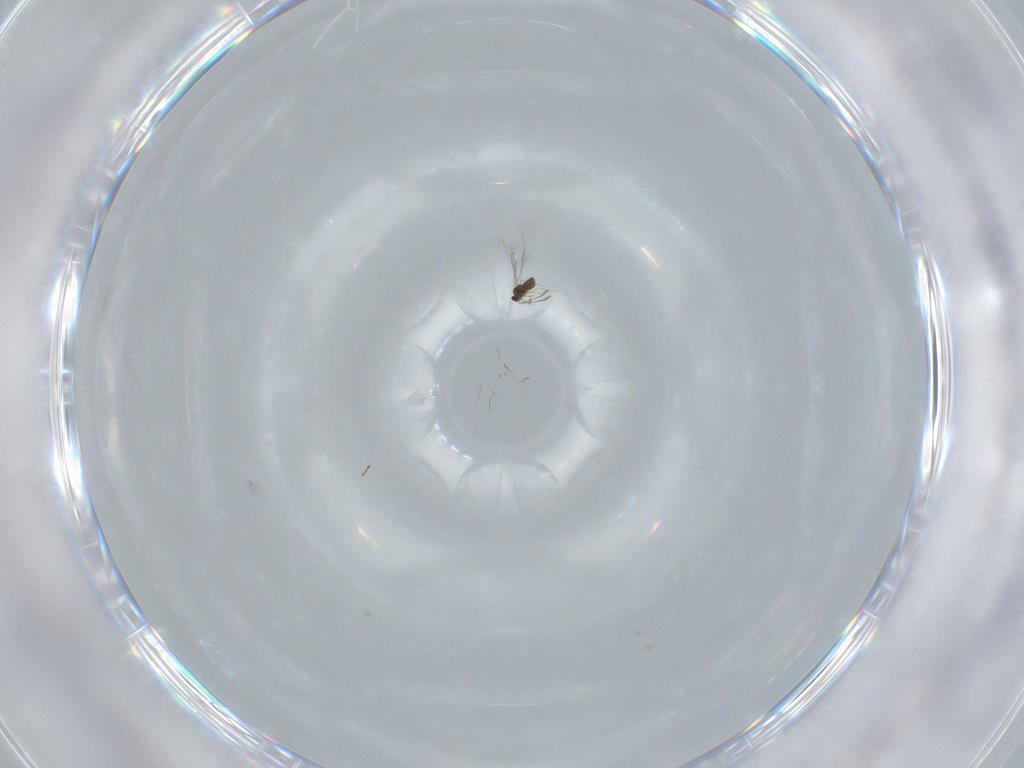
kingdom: Animalia
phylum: Arthropoda
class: Insecta
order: Hymenoptera
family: Scelionidae
